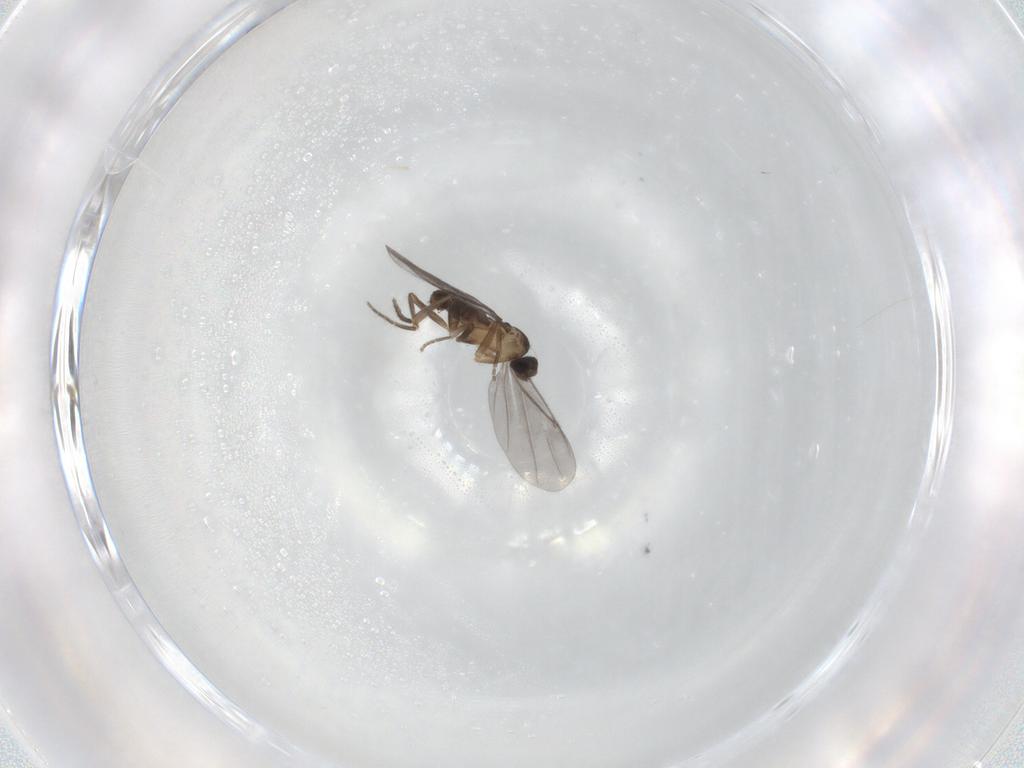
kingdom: Animalia
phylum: Arthropoda
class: Insecta
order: Diptera
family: Phoridae
